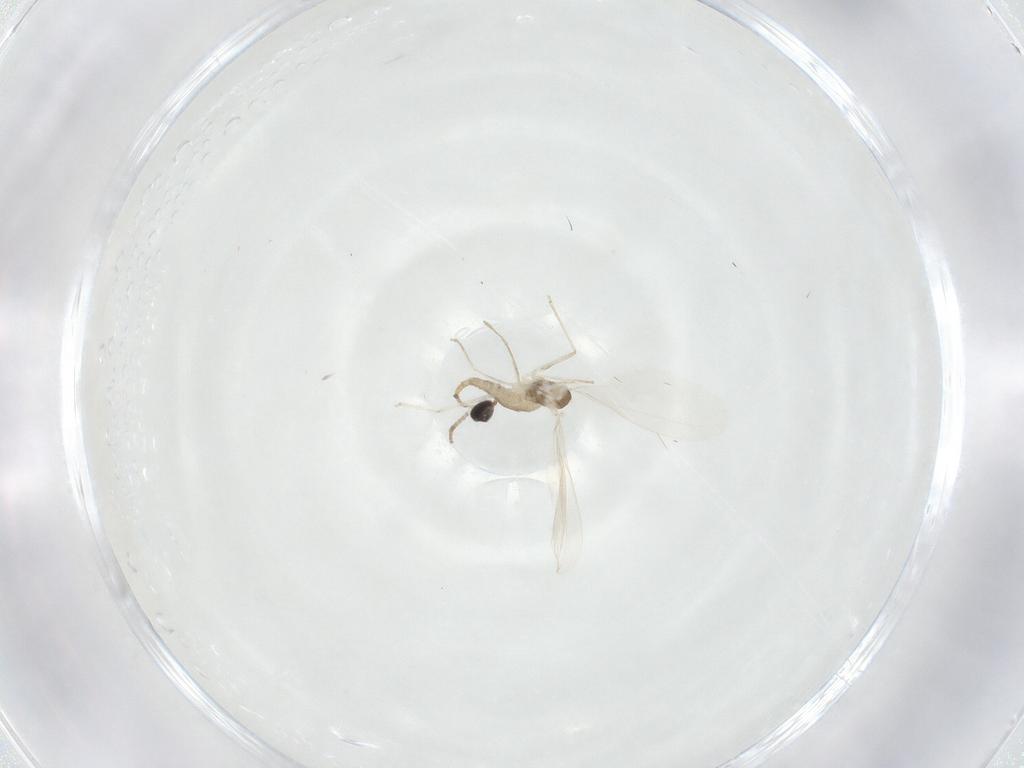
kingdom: Animalia
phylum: Arthropoda
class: Insecta
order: Diptera
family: Cecidomyiidae
